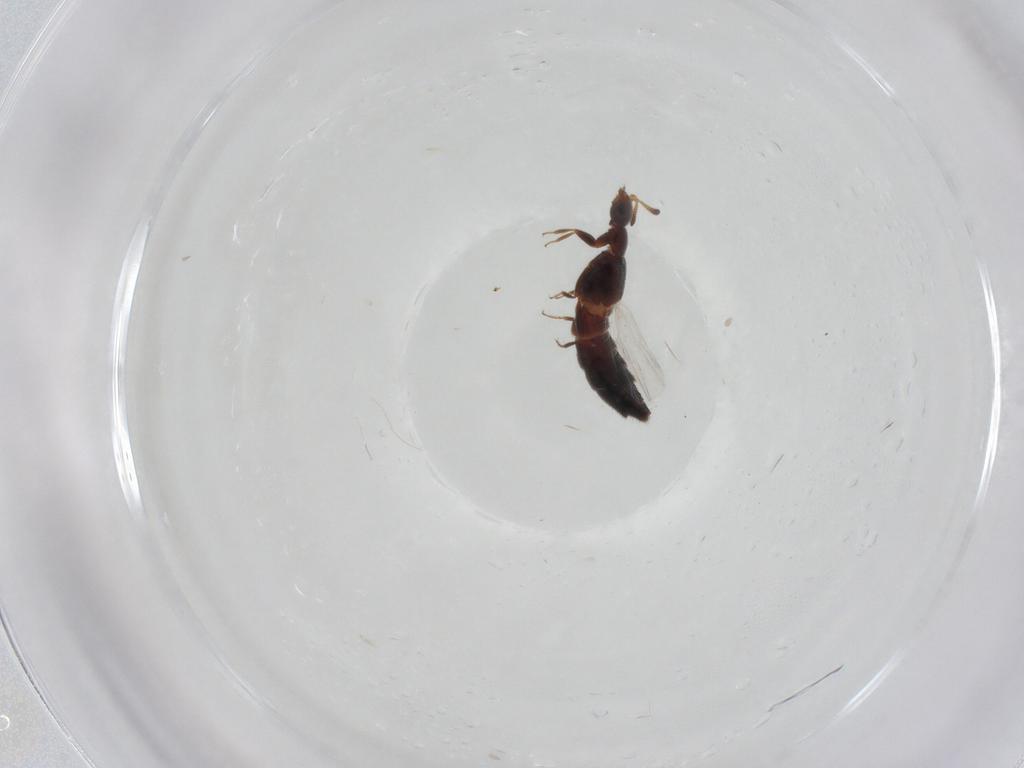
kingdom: Animalia
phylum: Arthropoda
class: Insecta
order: Coleoptera
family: Staphylinidae
